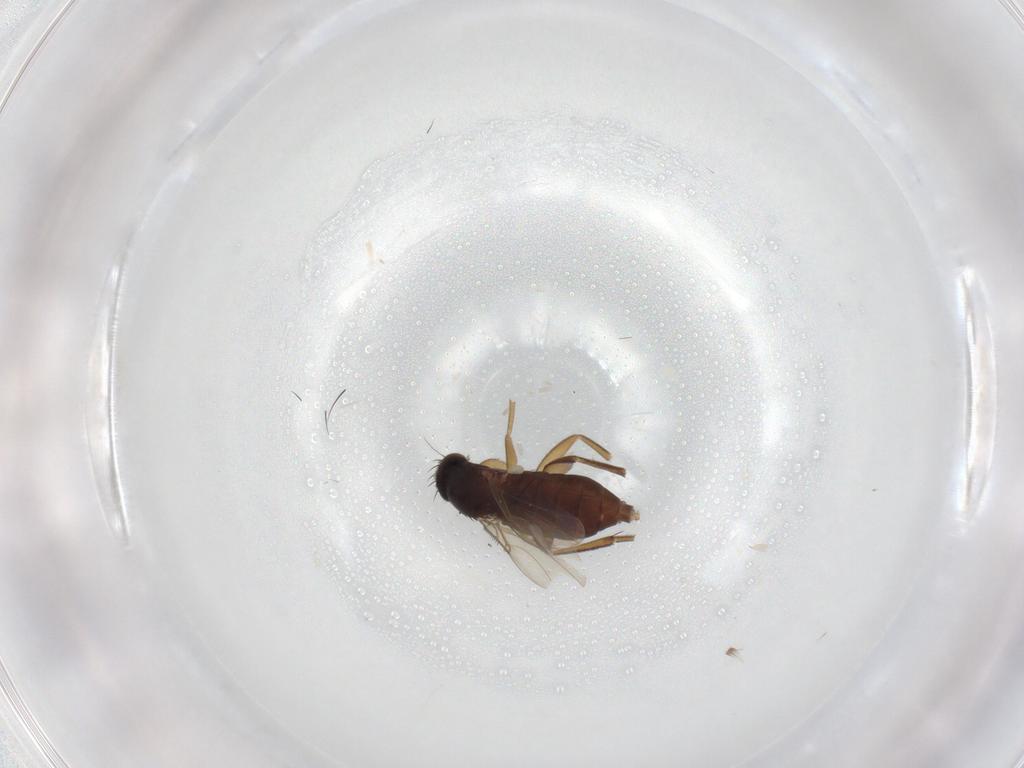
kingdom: Animalia
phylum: Arthropoda
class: Insecta
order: Diptera
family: Phoridae
